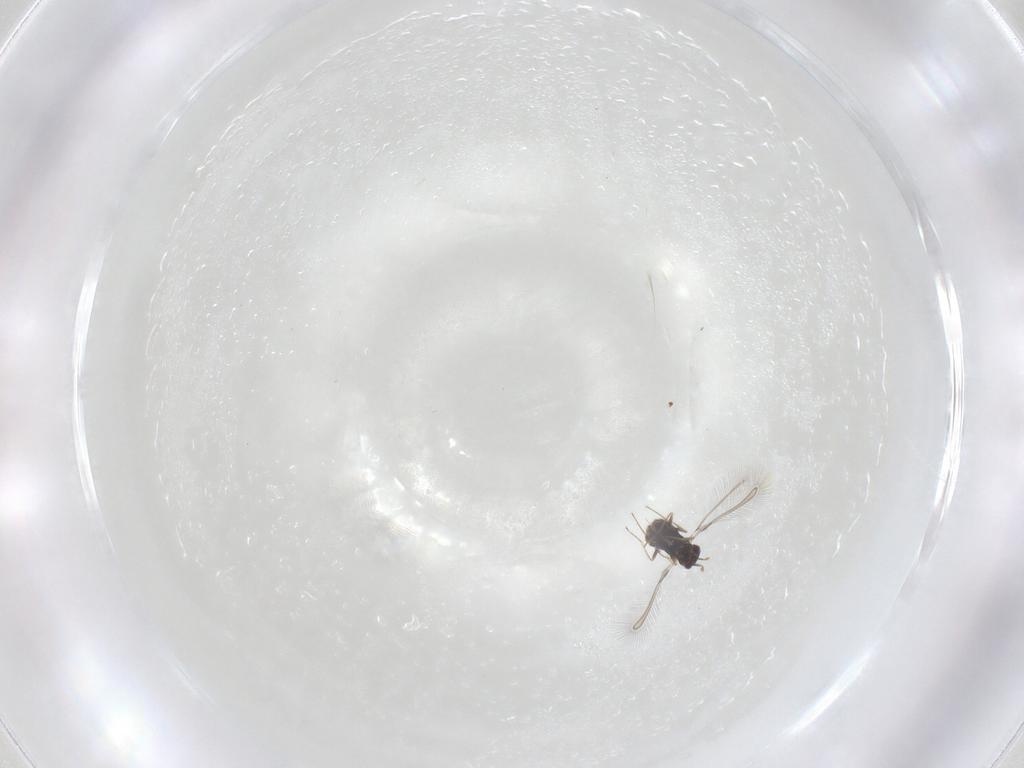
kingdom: Animalia
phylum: Arthropoda
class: Insecta
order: Hymenoptera
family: Mymaridae
